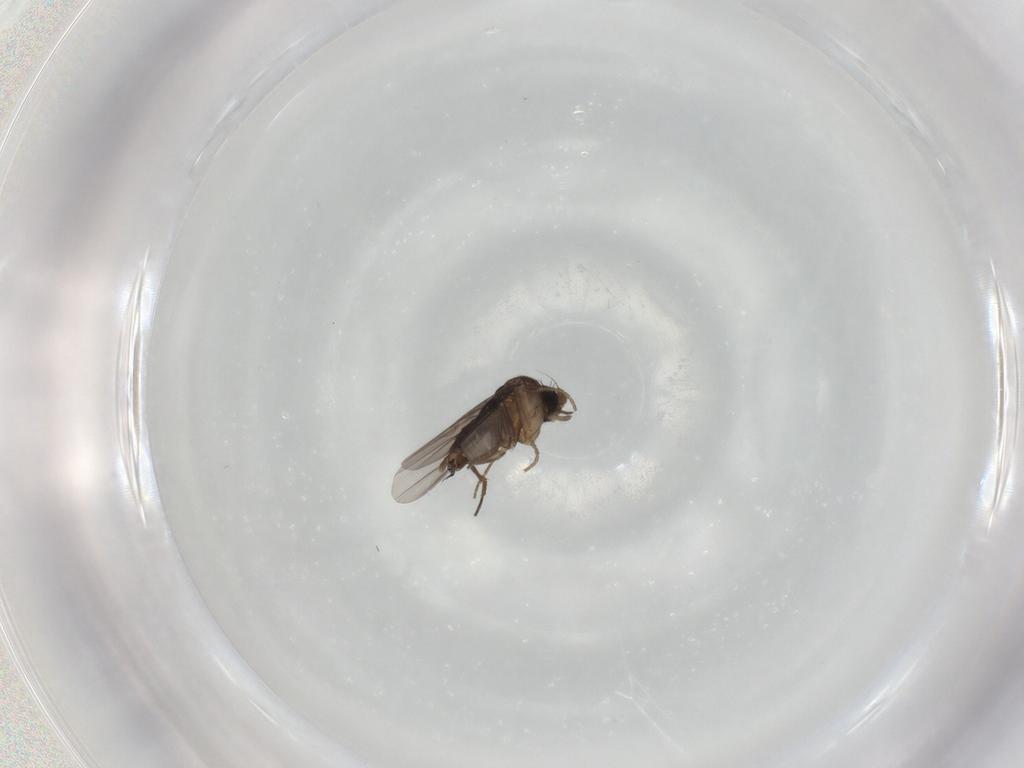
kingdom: Animalia
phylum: Arthropoda
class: Insecta
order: Diptera
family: Phoridae
